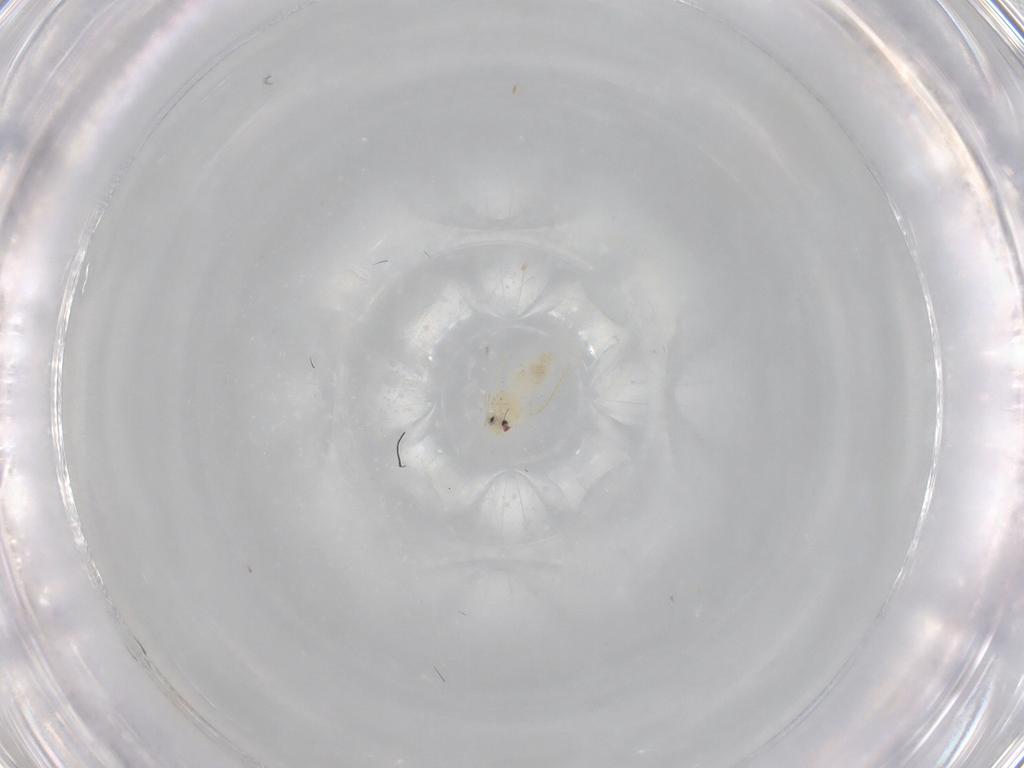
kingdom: Animalia
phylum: Arthropoda
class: Insecta
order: Hemiptera
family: Aleyrodidae
